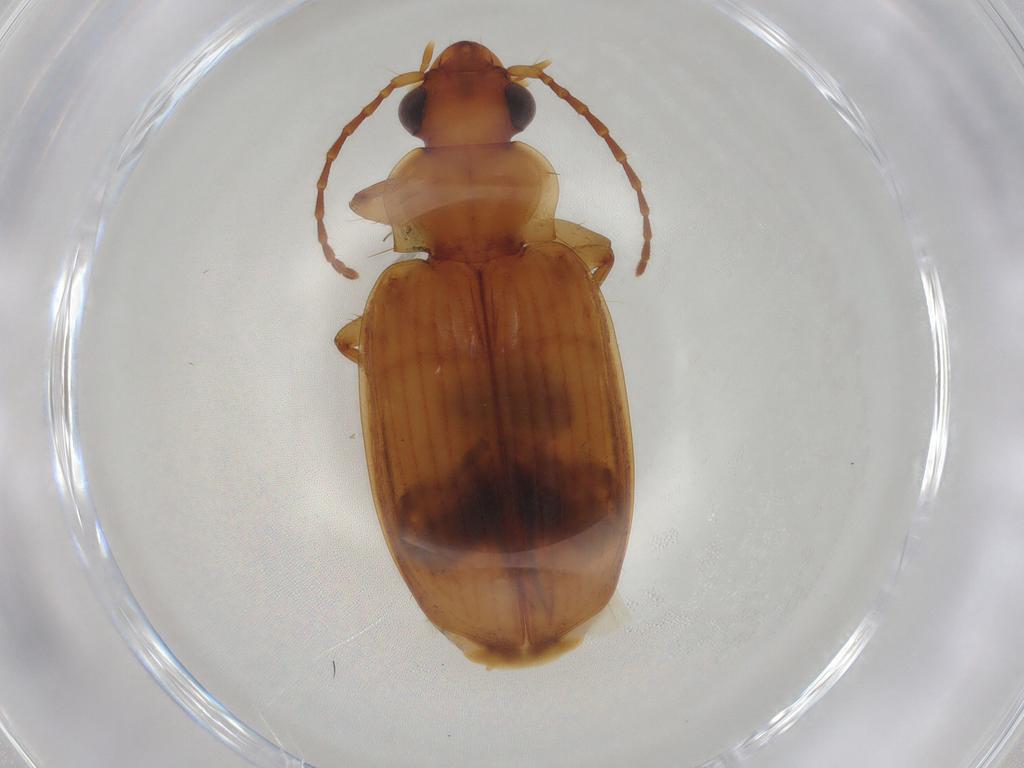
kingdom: Animalia
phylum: Arthropoda
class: Insecta
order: Coleoptera
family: Carabidae
